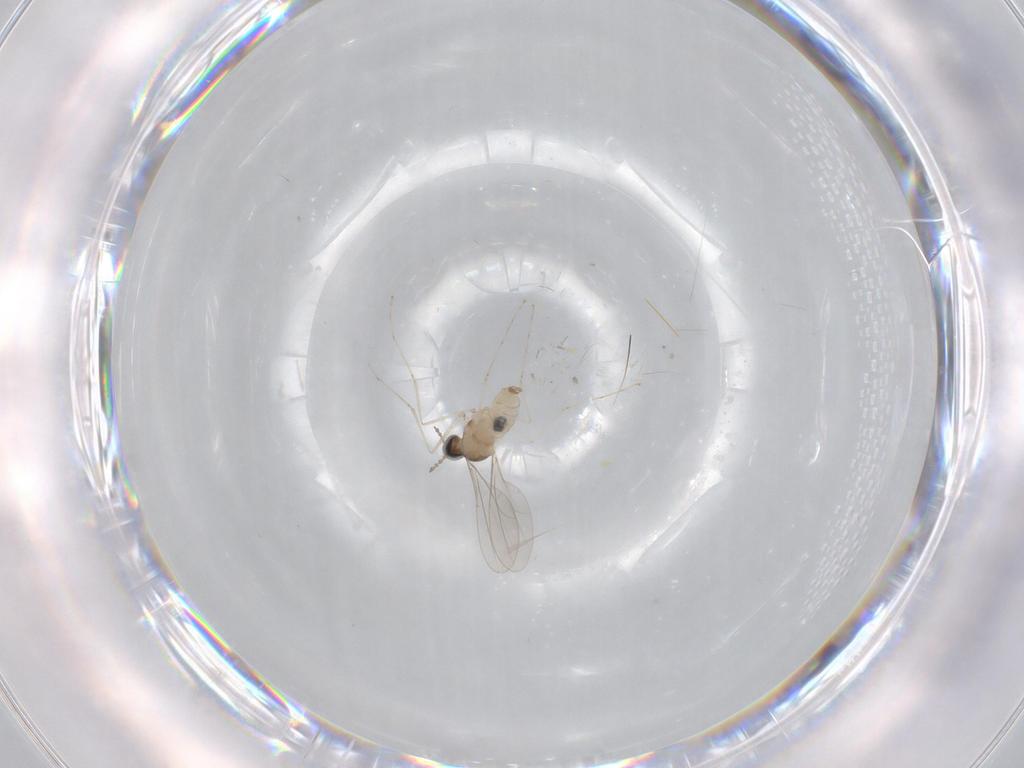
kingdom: Animalia
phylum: Arthropoda
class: Insecta
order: Diptera
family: Cecidomyiidae
